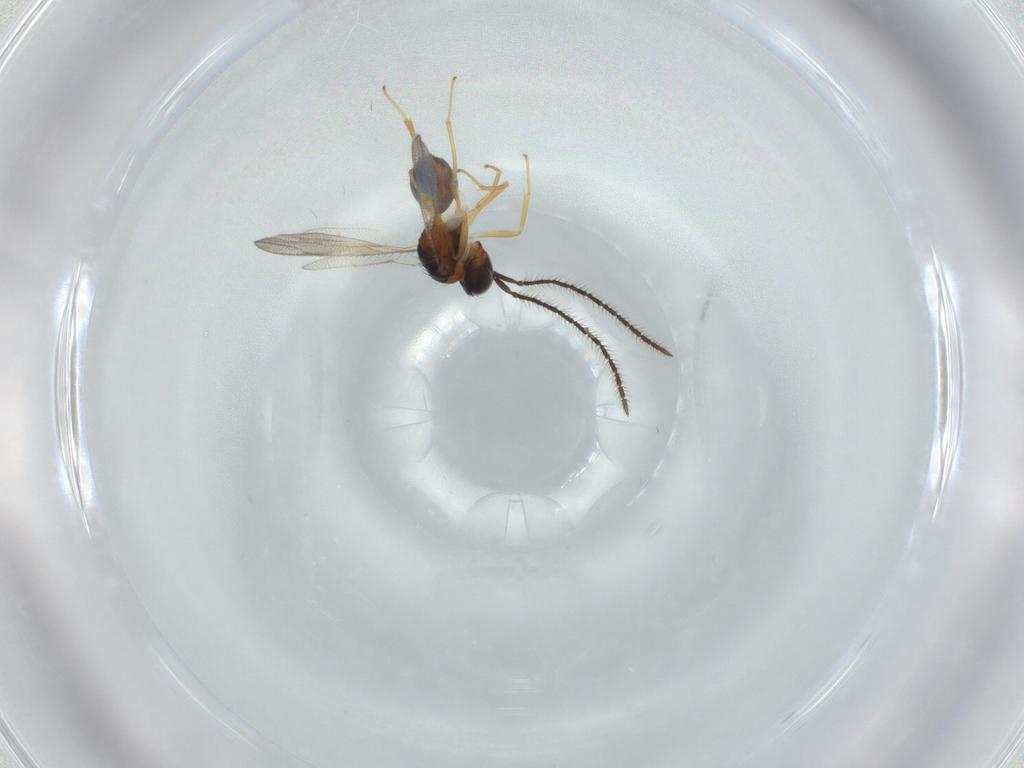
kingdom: Animalia
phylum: Arthropoda
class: Insecta
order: Hymenoptera
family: Diparidae
